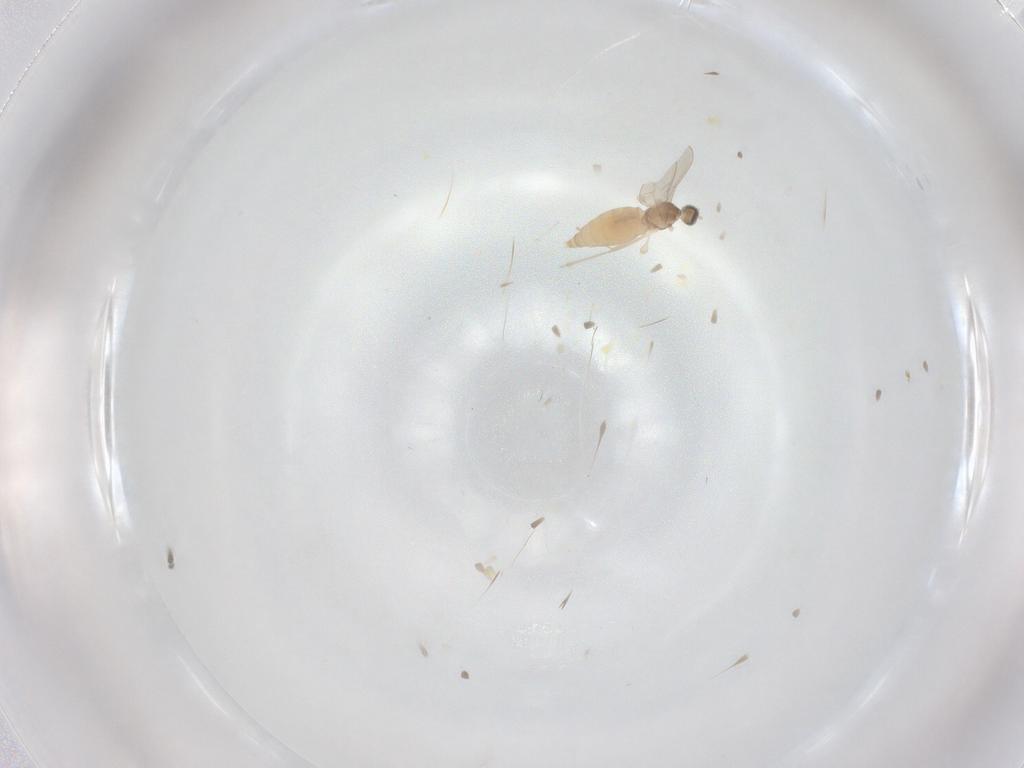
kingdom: Animalia
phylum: Arthropoda
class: Insecta
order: Diptera
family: Cecidomyiidae
